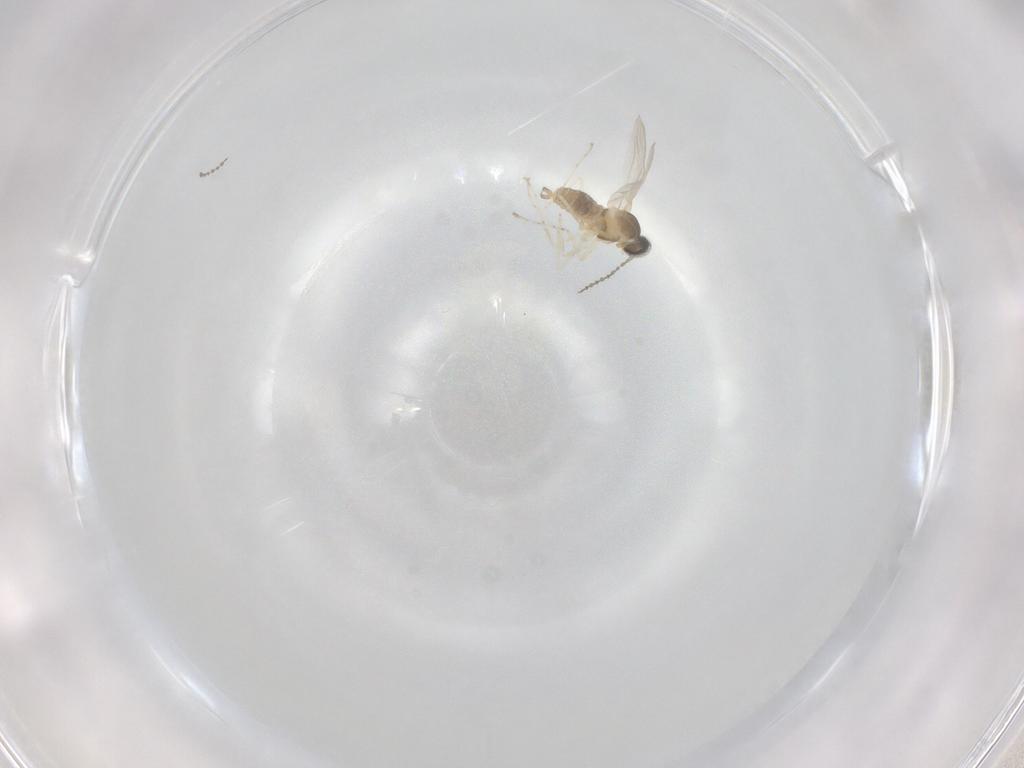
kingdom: Animalia
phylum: Arthropoda
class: Insecta
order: Diptera
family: Cecidomyiidae
